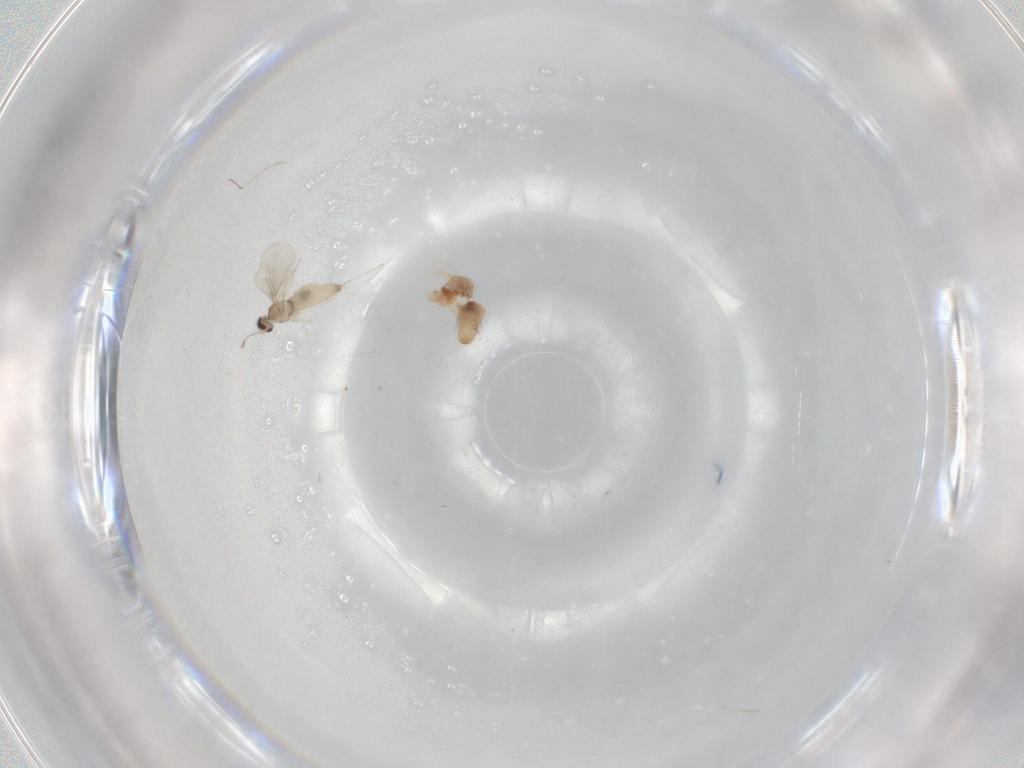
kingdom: Animalia
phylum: Arthropoda
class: Insecta
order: Diptera
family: Cecidomyiidae
